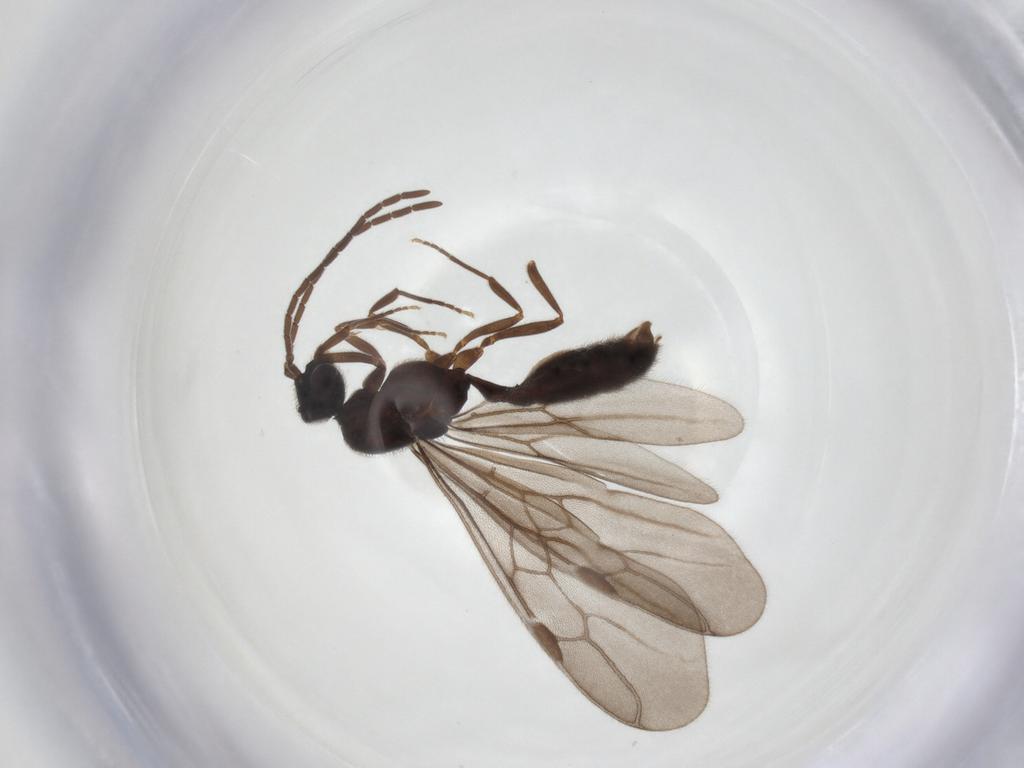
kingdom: Animalia
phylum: Arthropoda
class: Insecta
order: Hymenoptera
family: Formicidae
